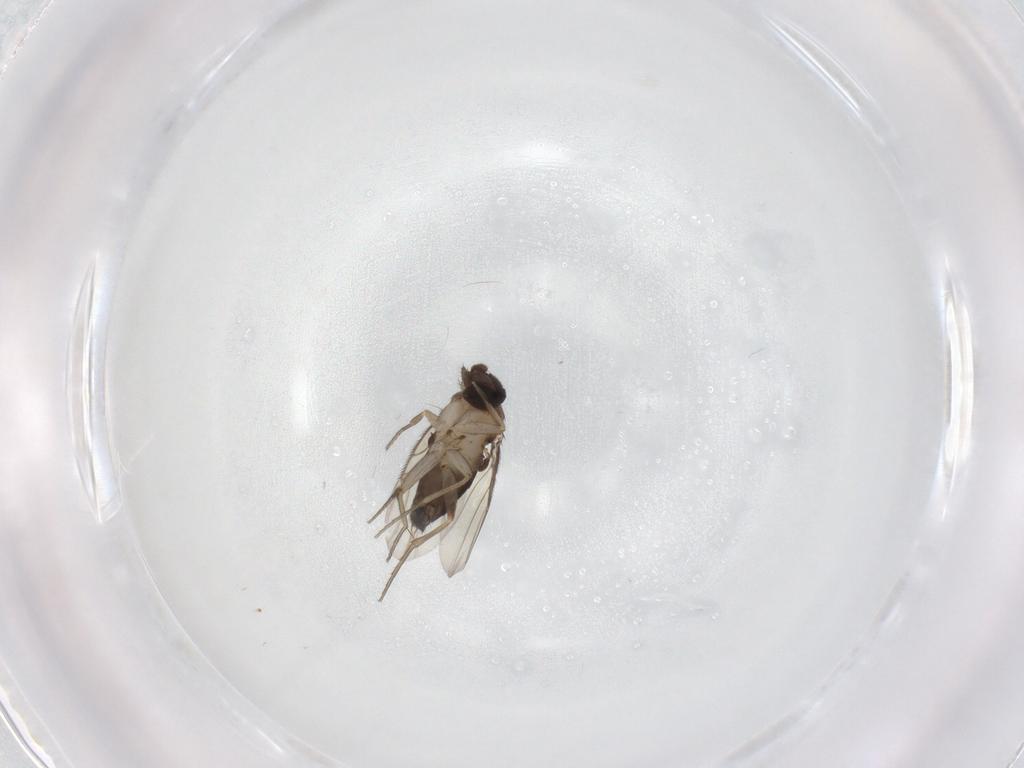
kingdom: Animalia
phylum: Arthropoda
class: Insecta
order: Diptera
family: Phoridae
